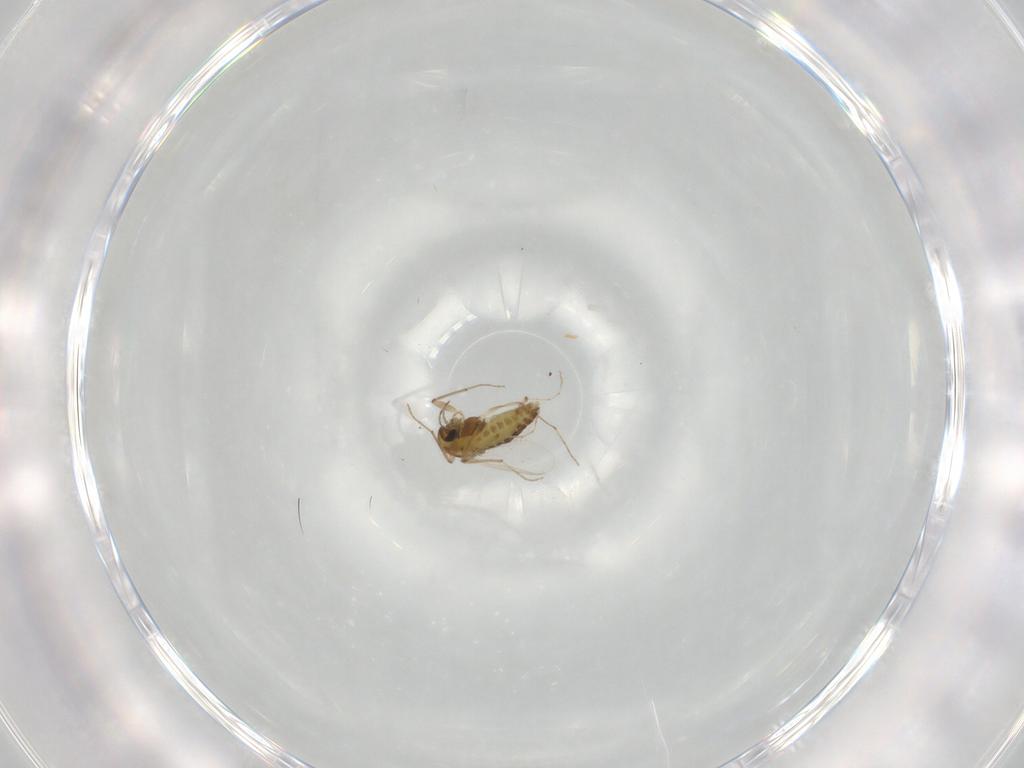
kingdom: Animalia
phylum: Arthropoda
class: Insecta
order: Diptera
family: Chironomidae
